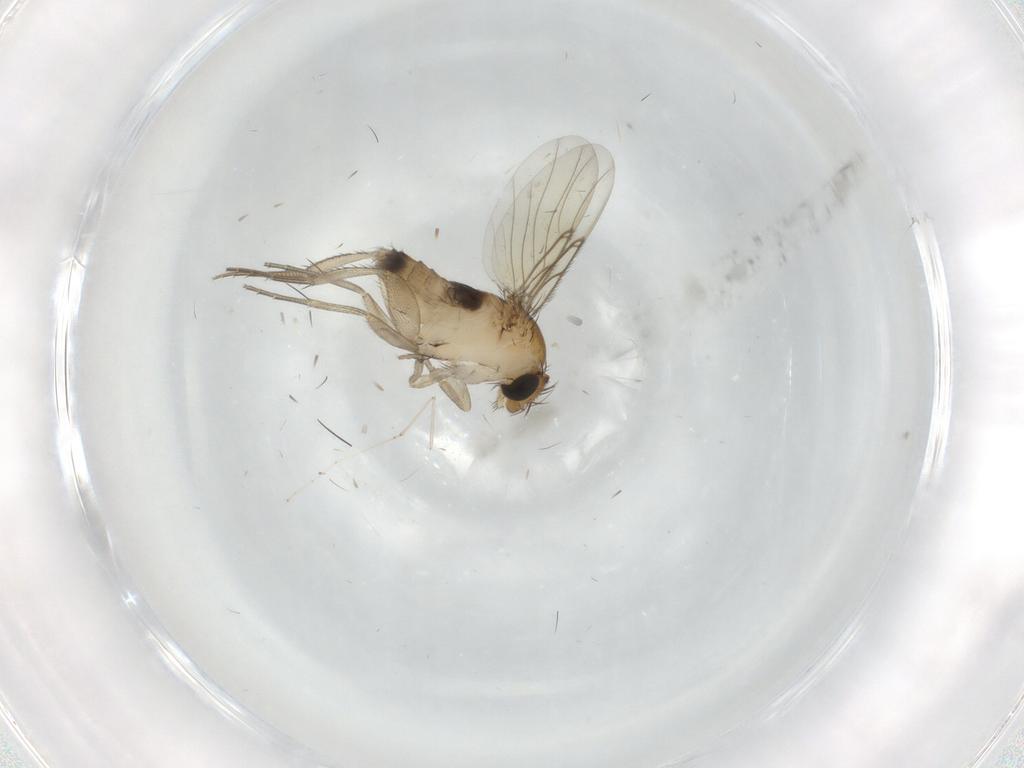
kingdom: Animalia
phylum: Arthropoda
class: Insecta
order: Diptera
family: Phoridae
